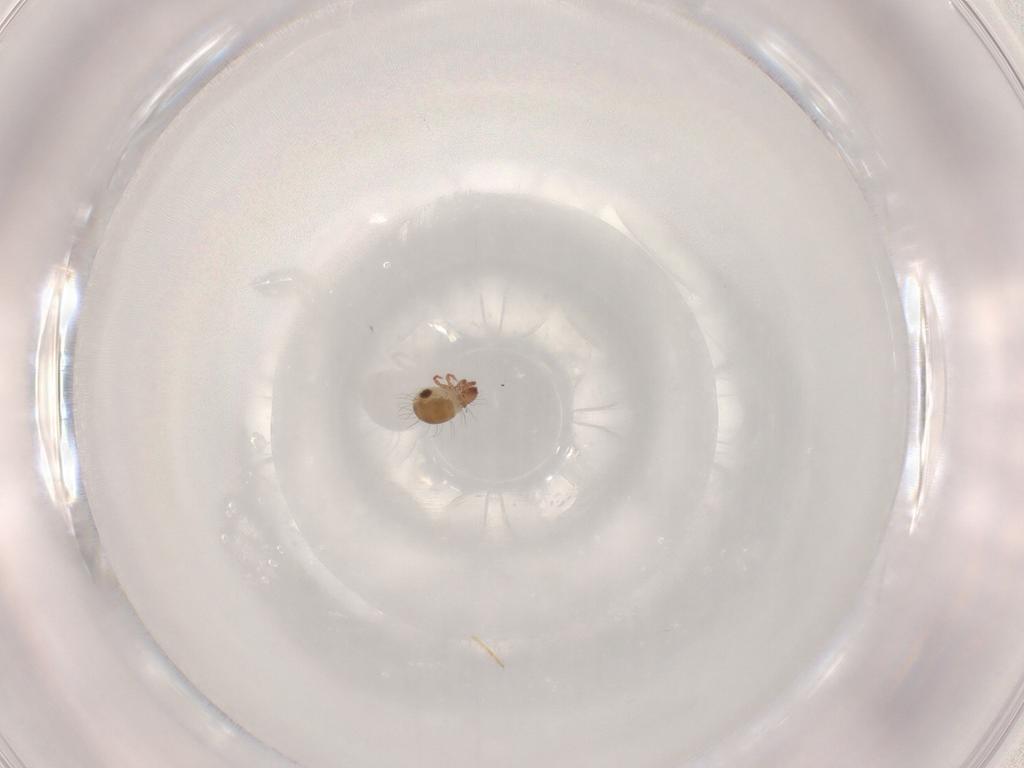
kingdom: Animalia
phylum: Arthropoda
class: Arachnida
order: Sarcoptiformes
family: Ceratozetidae
